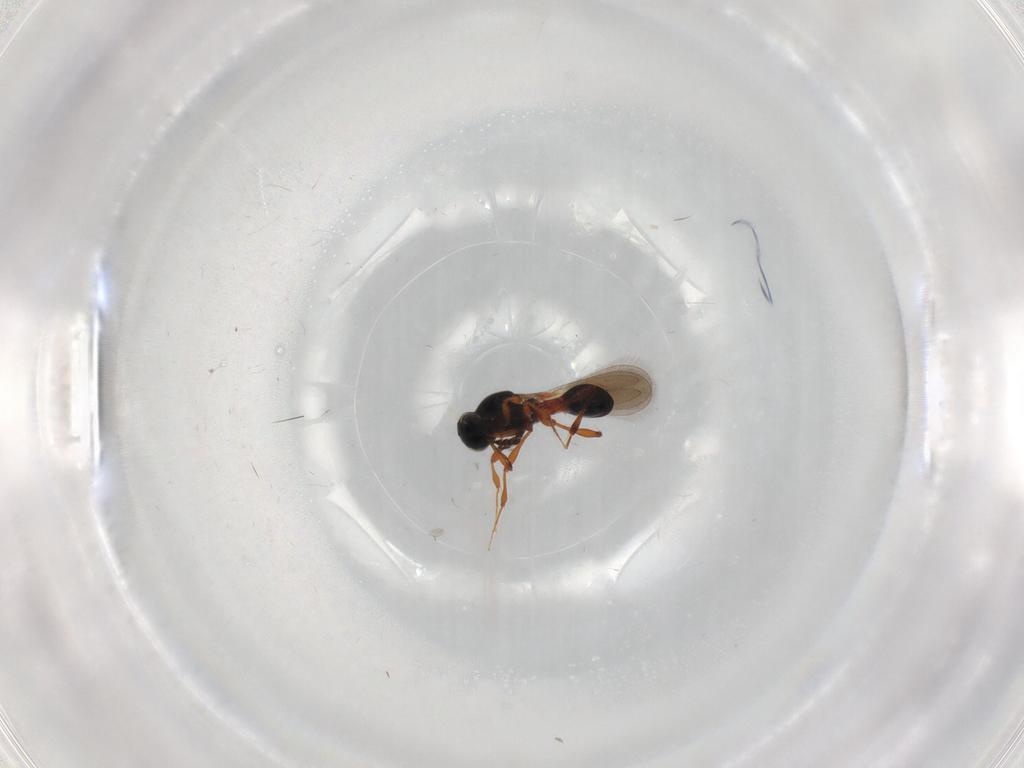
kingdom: Animalia
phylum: Arthropoda
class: Insecta
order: Hymenoptera
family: Platygastridae
